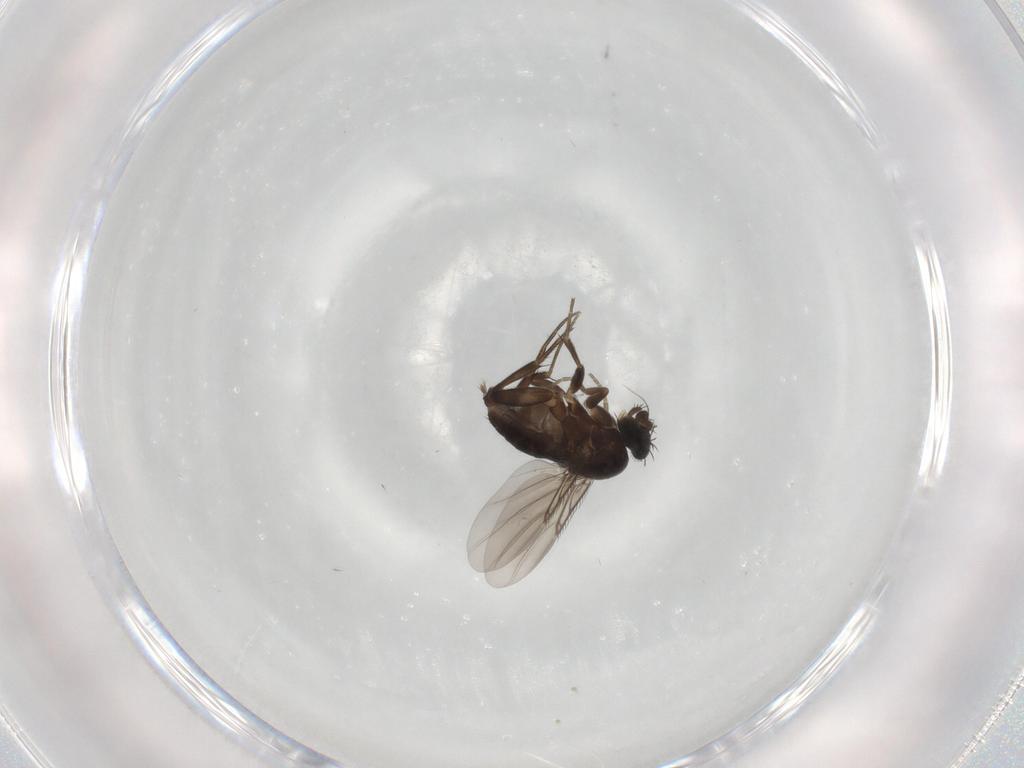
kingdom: Animalia
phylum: Arthropoda
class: Insecta
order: Diptera
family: Phoridae
